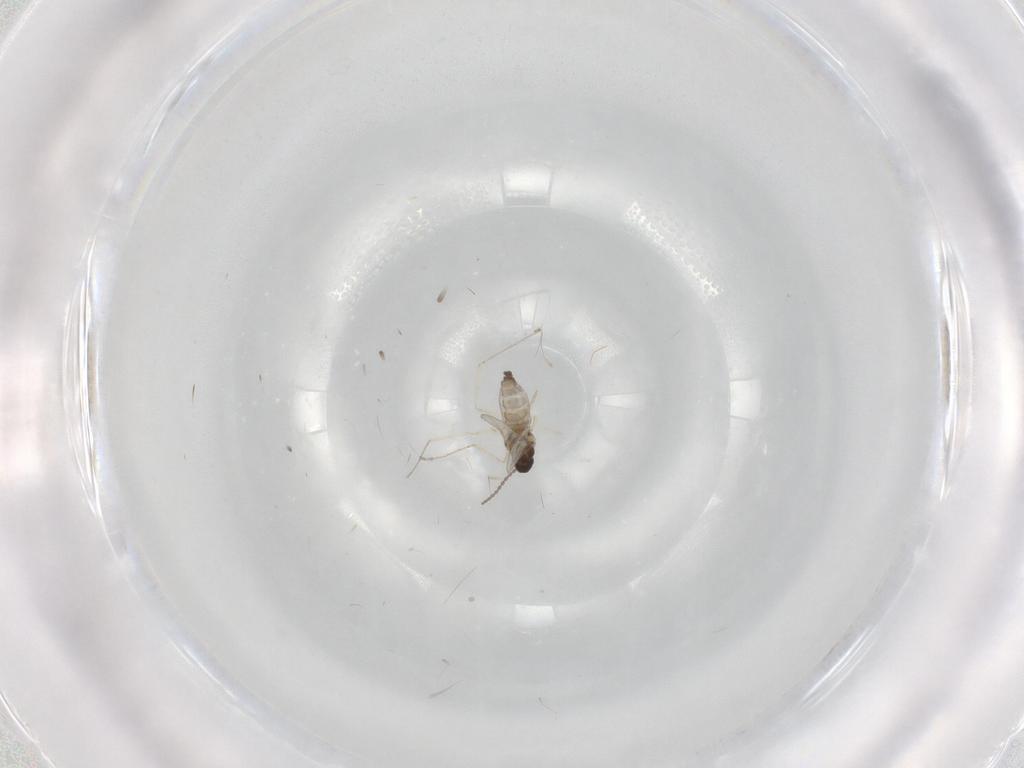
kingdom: Animalia
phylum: Arthropoda
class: Insecta
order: Diptera
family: Cecidomyiidae
